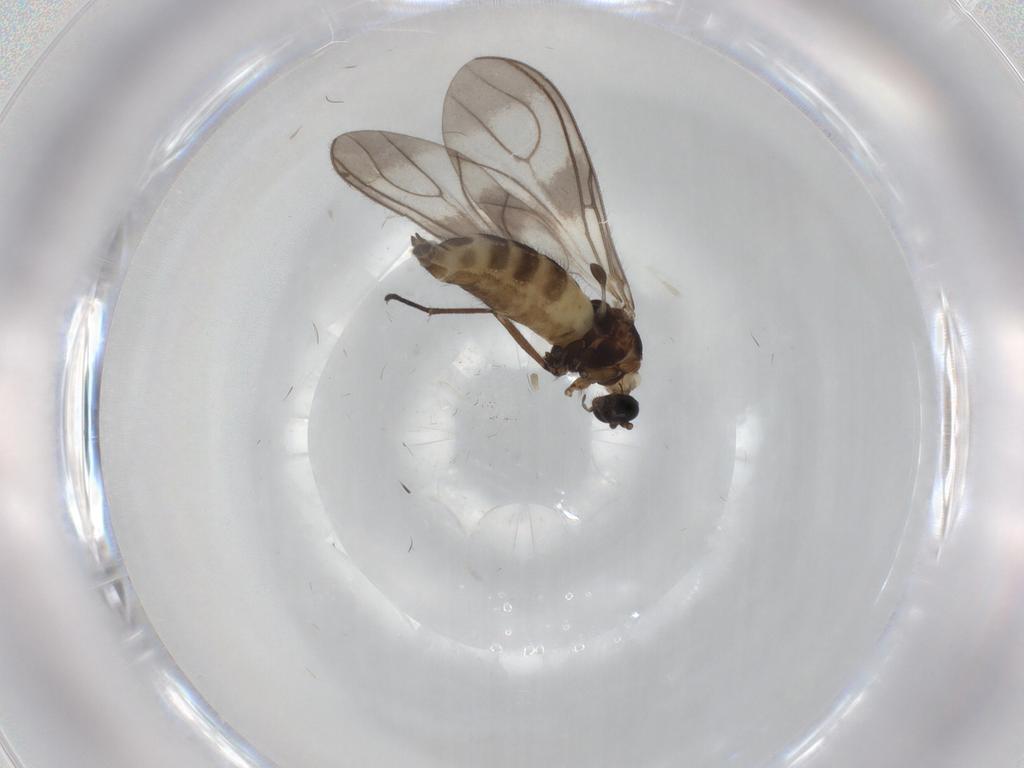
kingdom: Animalia
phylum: Arthropoda
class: Insecta
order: Diptera
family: Sciaridae
